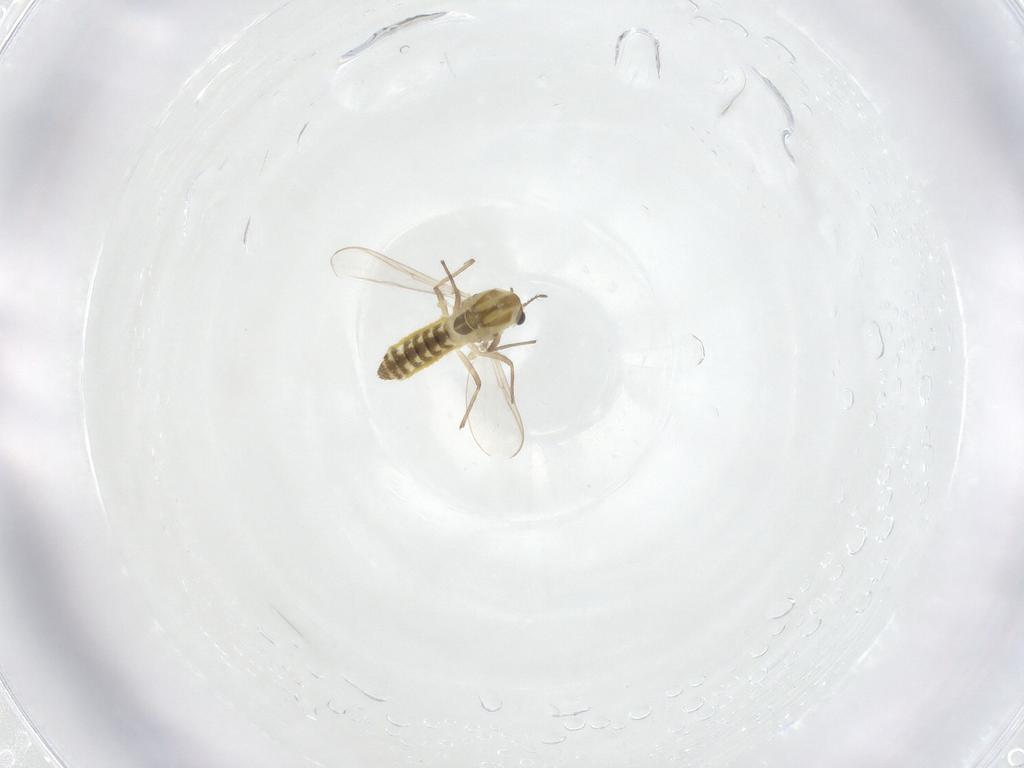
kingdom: Animalia
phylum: Arthropoda
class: Insecta
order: Diptera
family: Chironomidae
